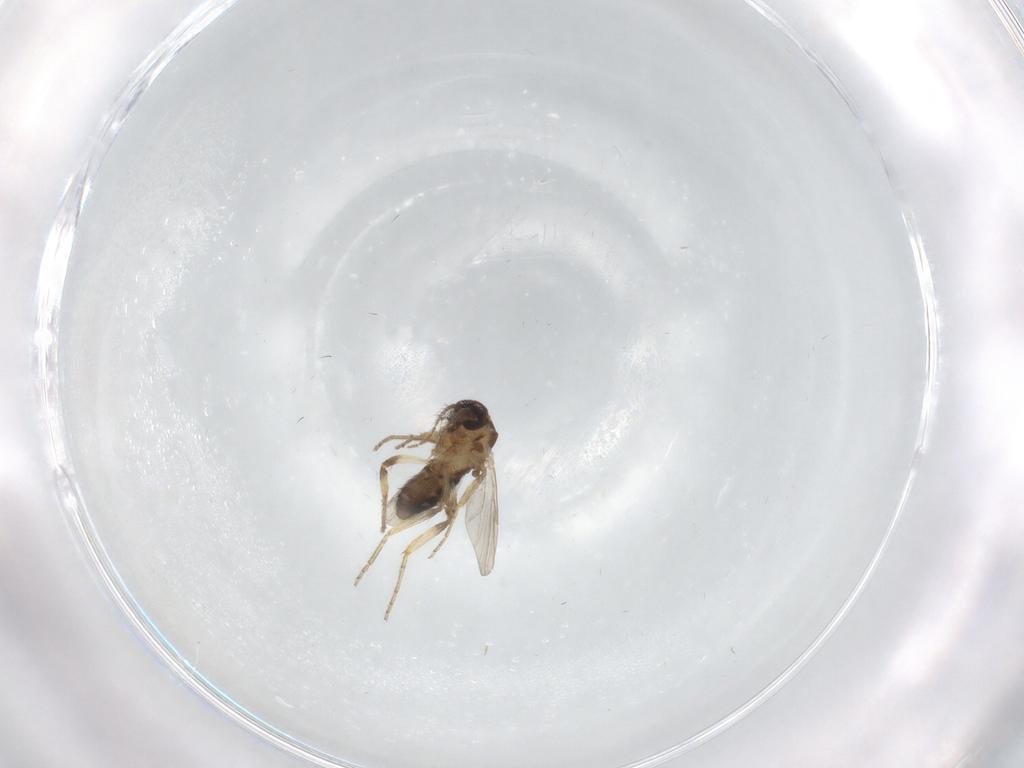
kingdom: Animalia
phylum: Arthropoda
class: Insecta
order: Diptera
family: Ceratopogonidae
